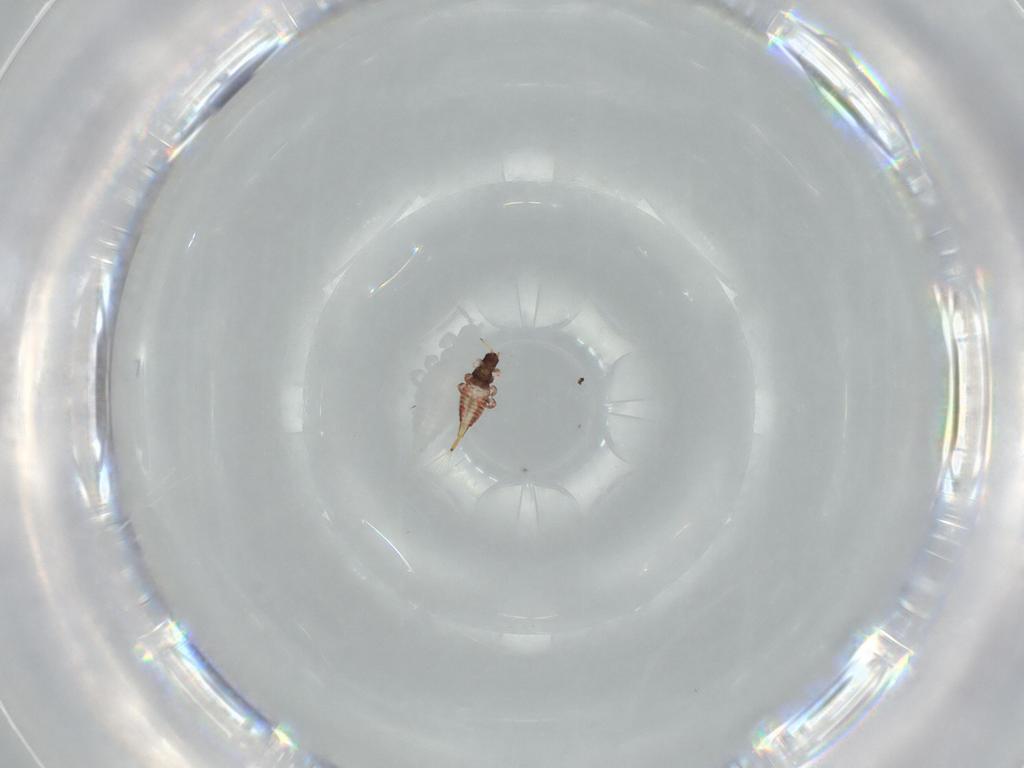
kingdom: Animalia
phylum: Arthropoda
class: Insecta
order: Thysanoptera
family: Phlaeothripidae
